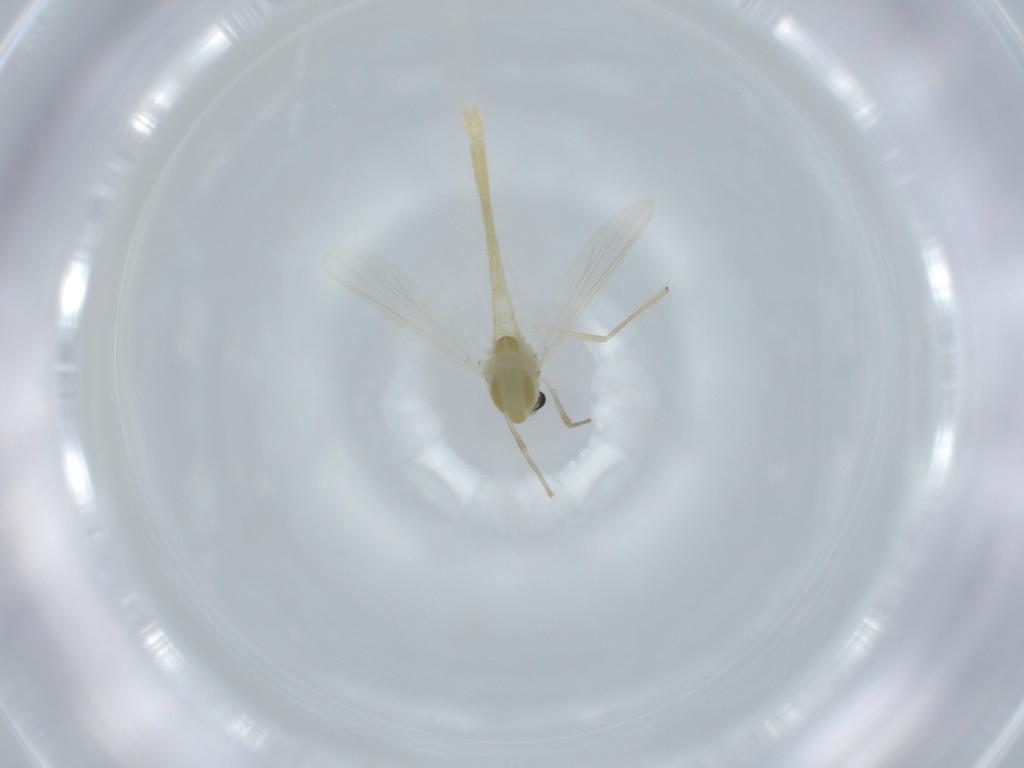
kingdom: Animalia
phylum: Arthropoda
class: Insecta
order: Diptera
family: Chironomidae
